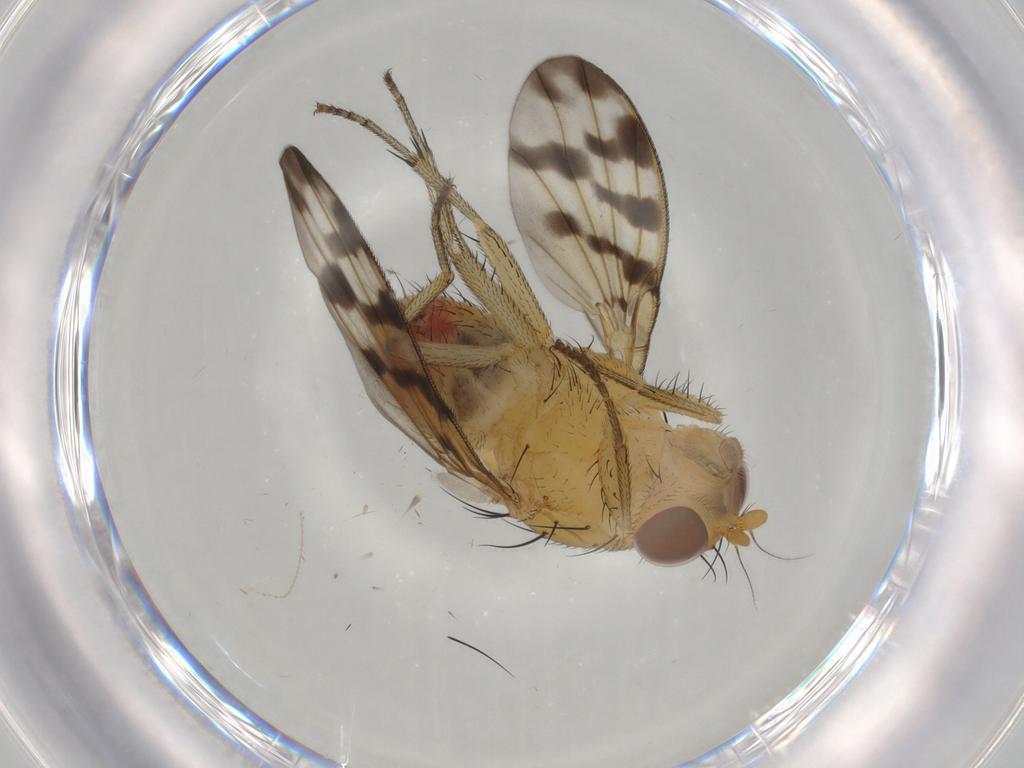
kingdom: Animalia
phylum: Arthropoda
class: Insecta
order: Diptera
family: Cecidomyiidae
